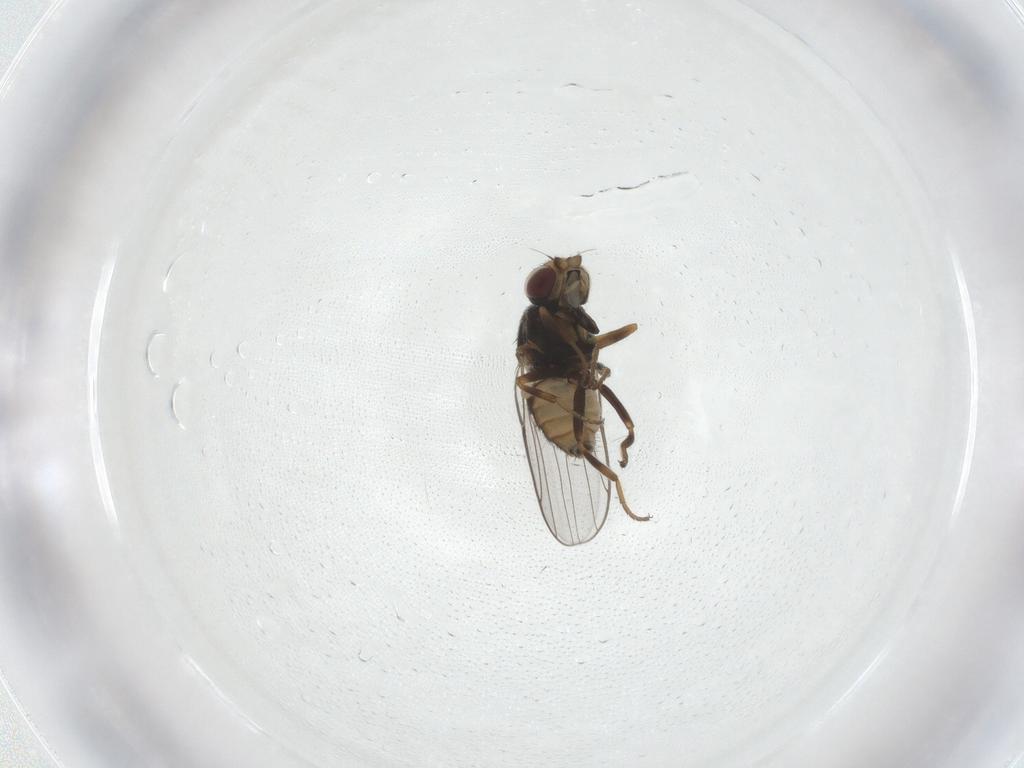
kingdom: Animalia
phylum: Arthropoda
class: Insecta
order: Diptera
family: Chloropidae
